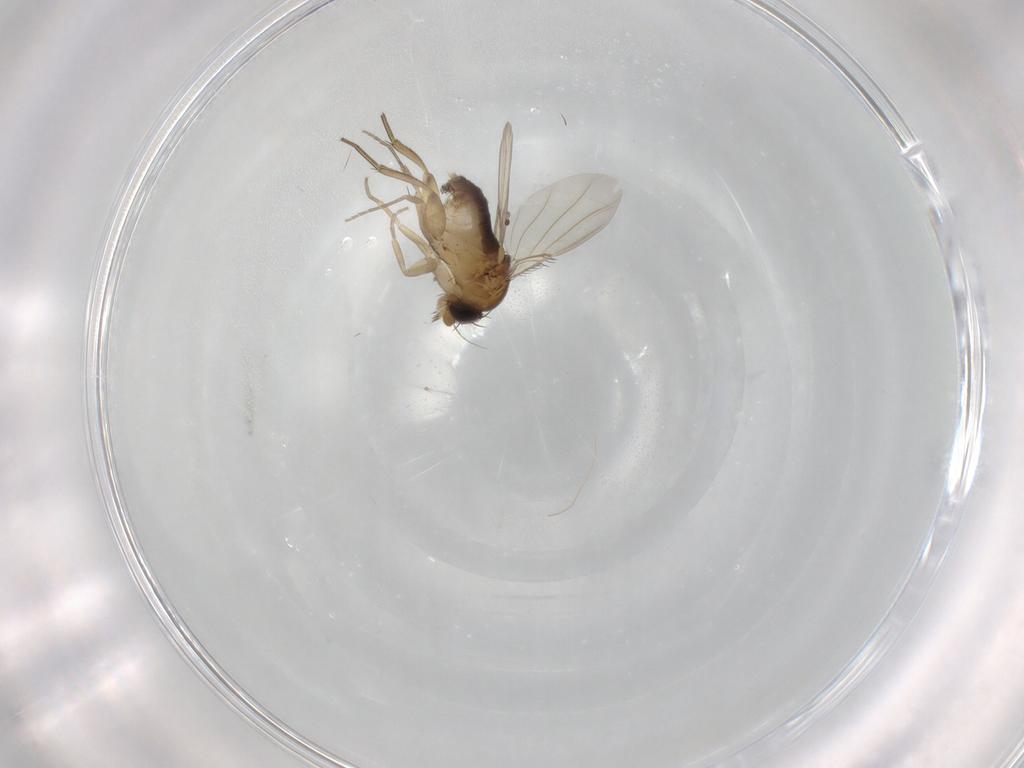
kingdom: Animalia
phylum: Arthropoda
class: Insecta
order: Diptera
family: Phoridae
